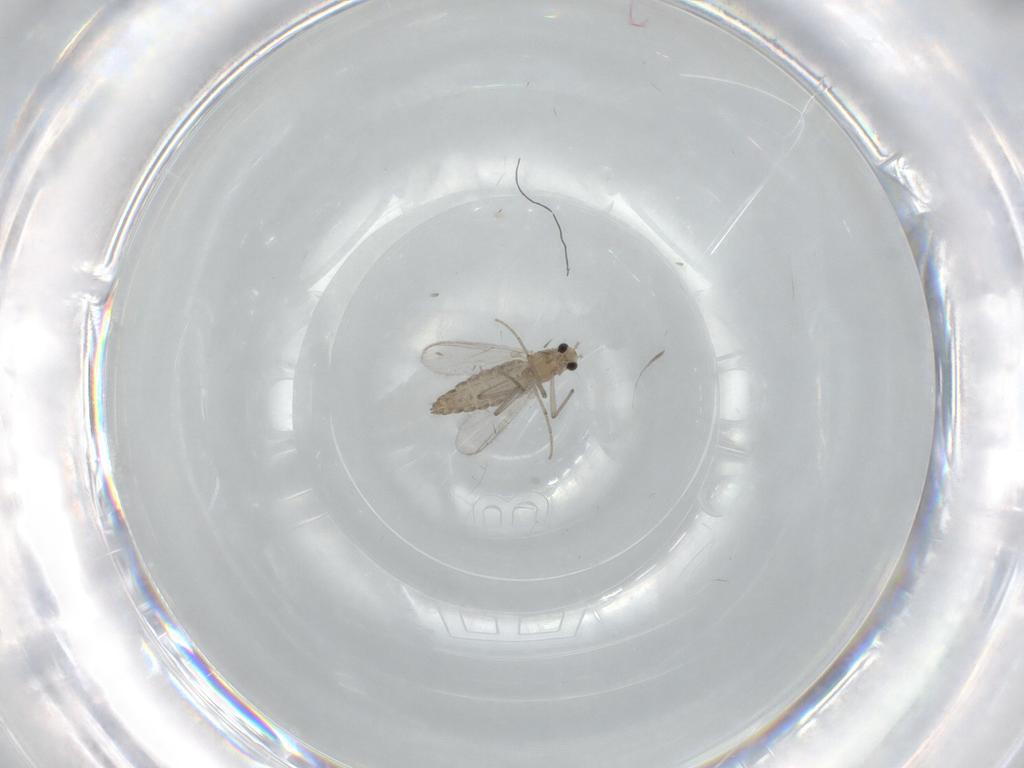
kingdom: Animalia
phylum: Arthropoda
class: Insecta
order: Diptera
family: Chironomidae
